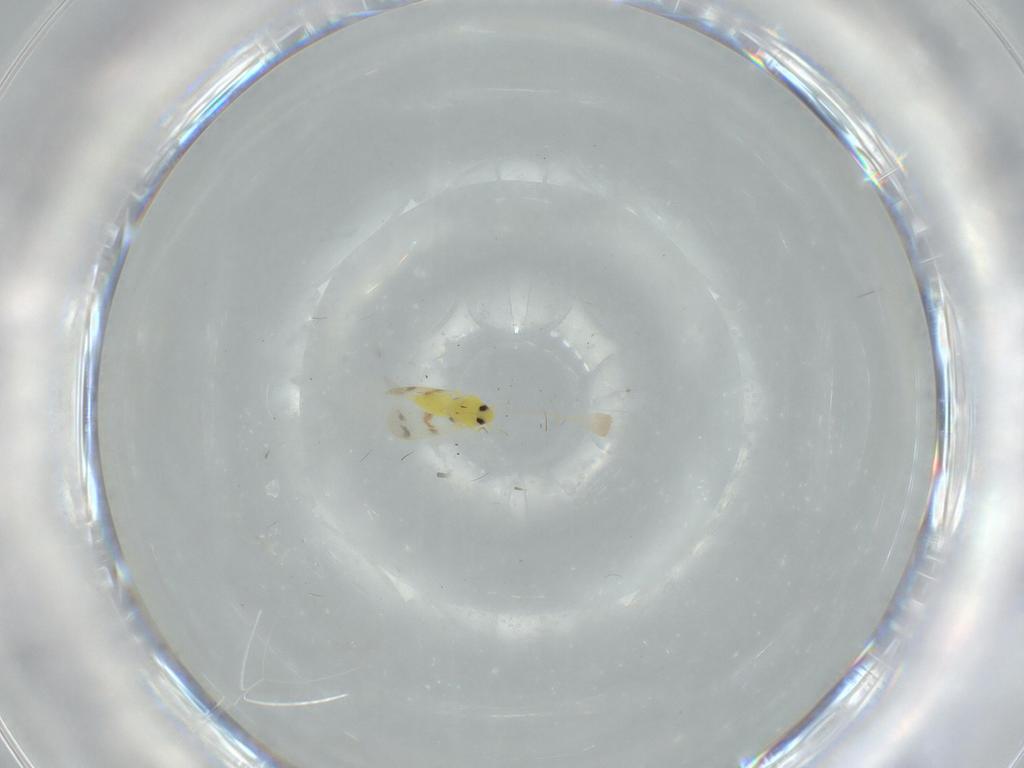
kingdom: Animalia
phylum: Arthropoda
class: Insecta
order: Hemiptera
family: Aleyrodidae
